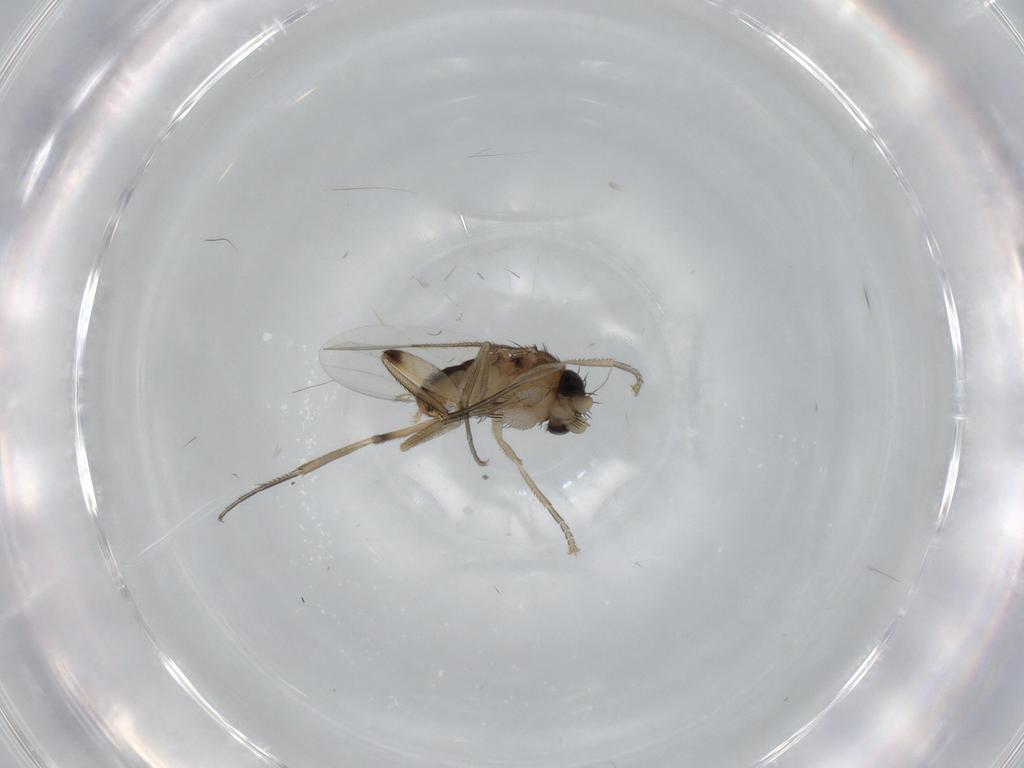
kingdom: Animalia
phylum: Arthropoda
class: Insecta
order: Diptera
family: Phoridae
